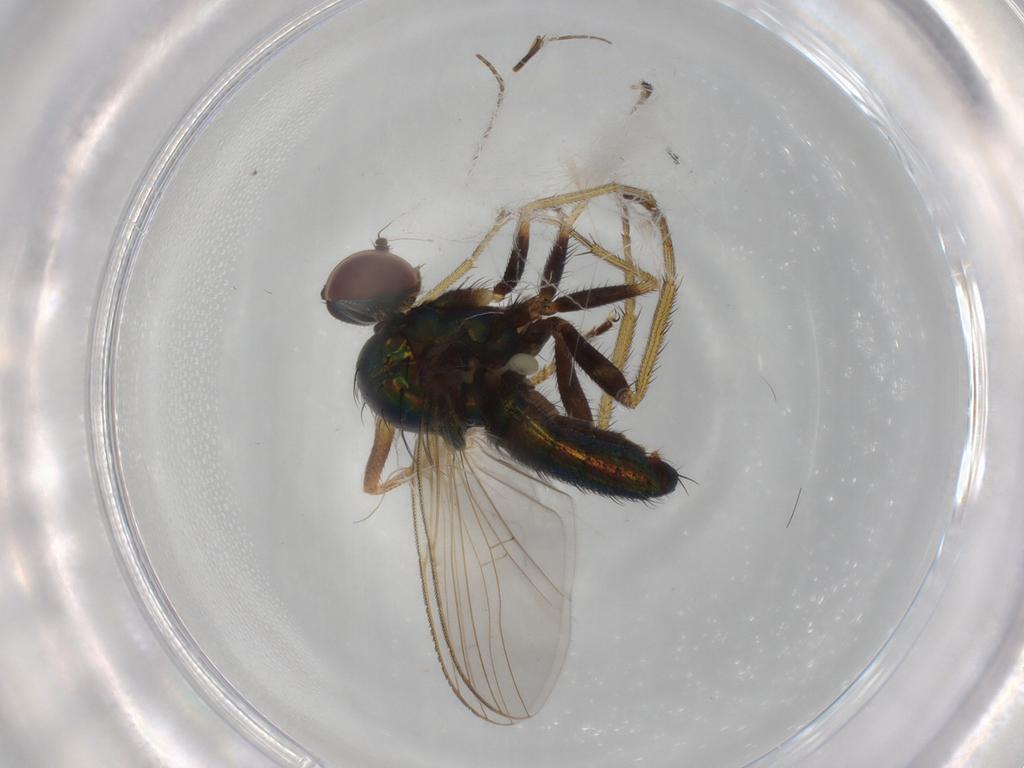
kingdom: Animalia
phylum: Arthropoda
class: Insecta
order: Diptera
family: Dolichopodidae
